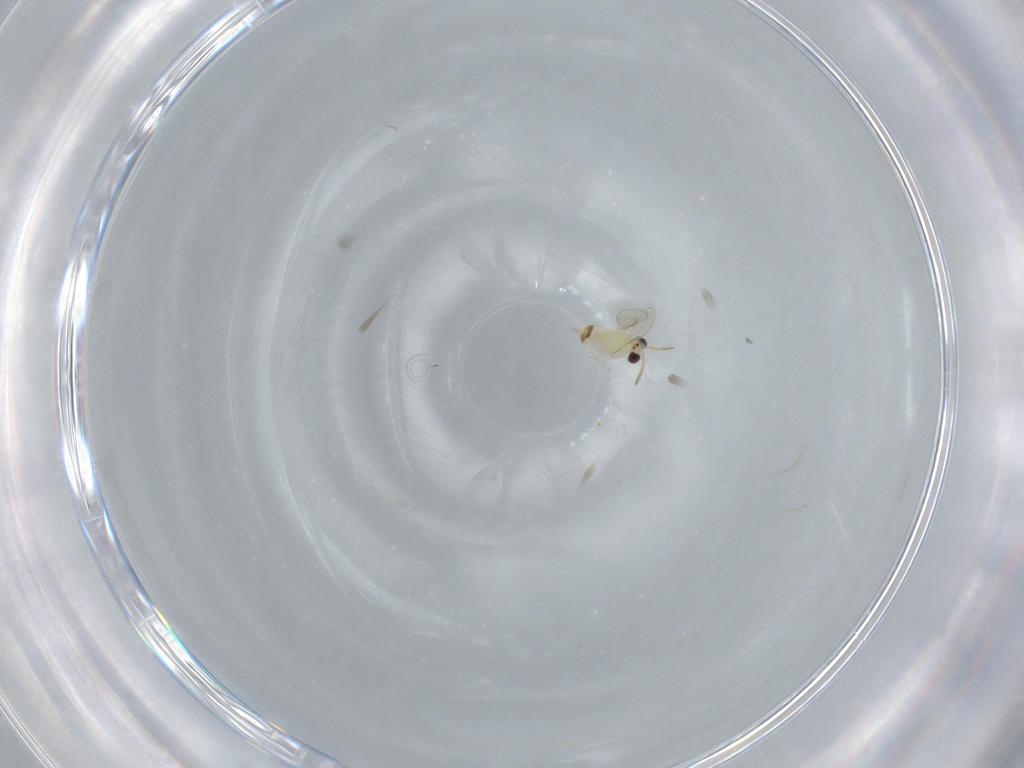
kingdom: Animalia
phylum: Arthropoda
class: Insecta
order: Hymenoptera
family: Aphelinidae
